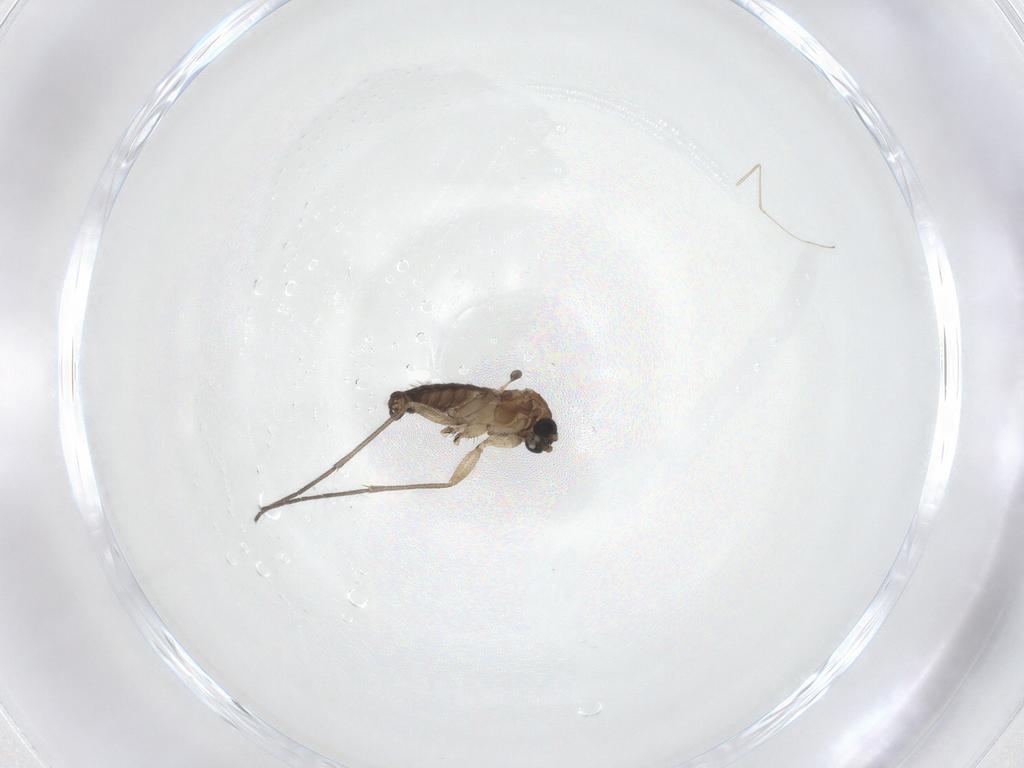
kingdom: Animalia
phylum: Arthropoda
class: Insecta
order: Diptera
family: Sciaridae
